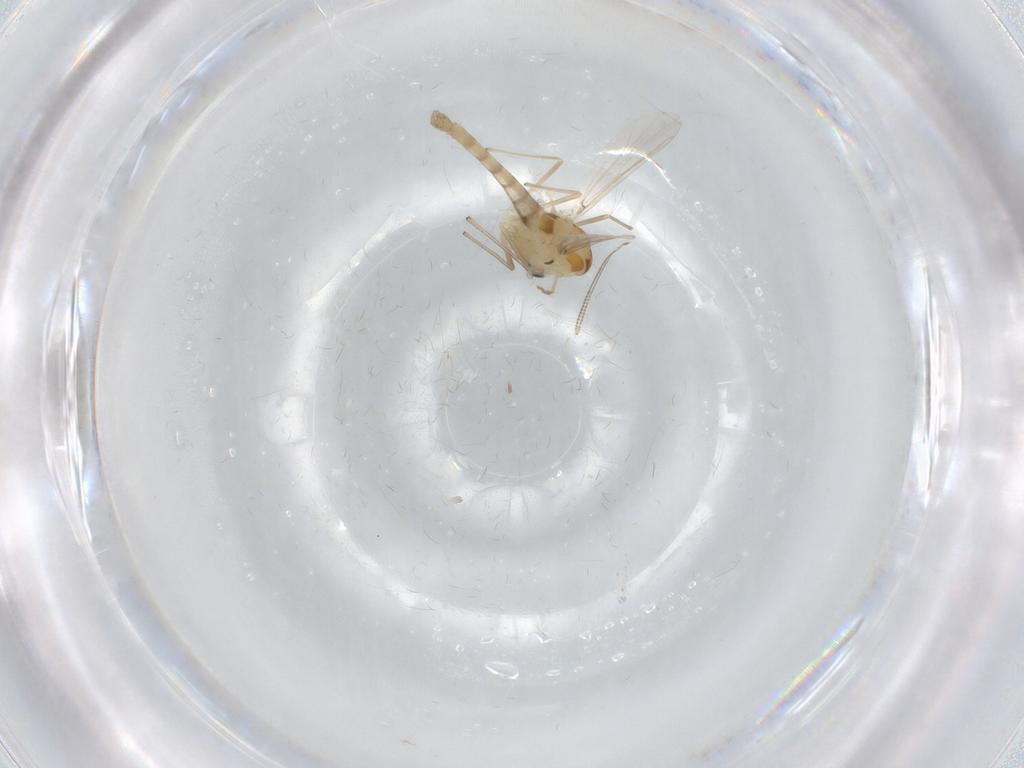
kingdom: Animalia
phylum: Arthropoda
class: Insecta
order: Diptera
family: Chironomidae
